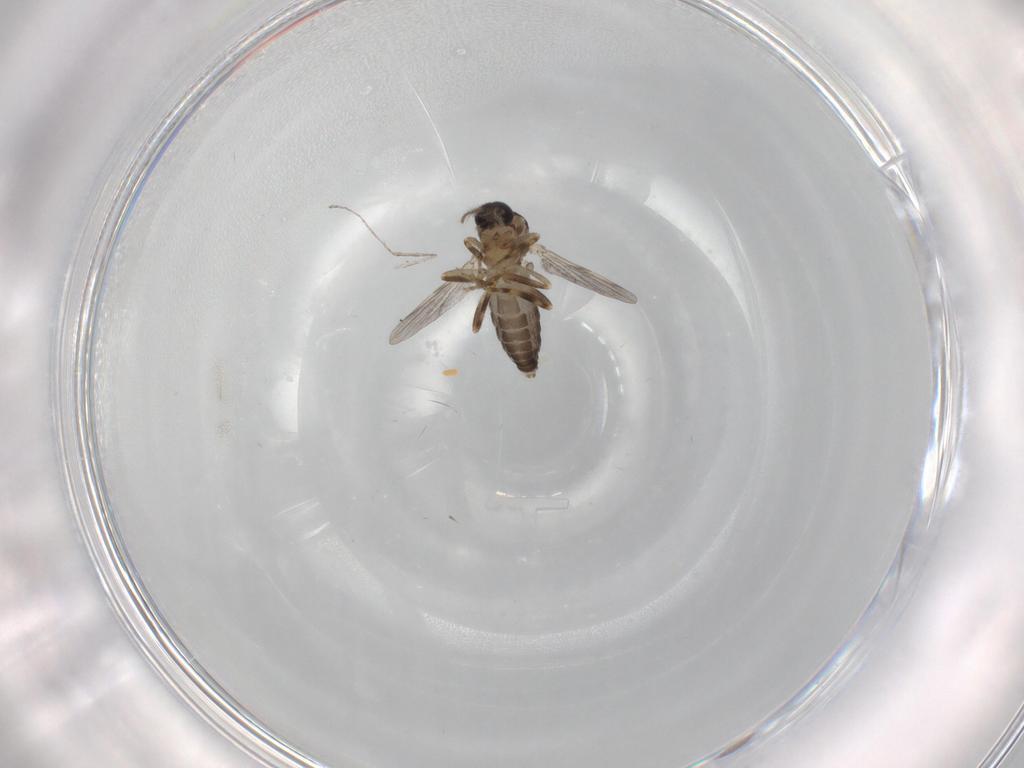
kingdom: Animalia
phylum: Arthropoda
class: Insecta
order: Diptera
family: Ceratopogonidae
